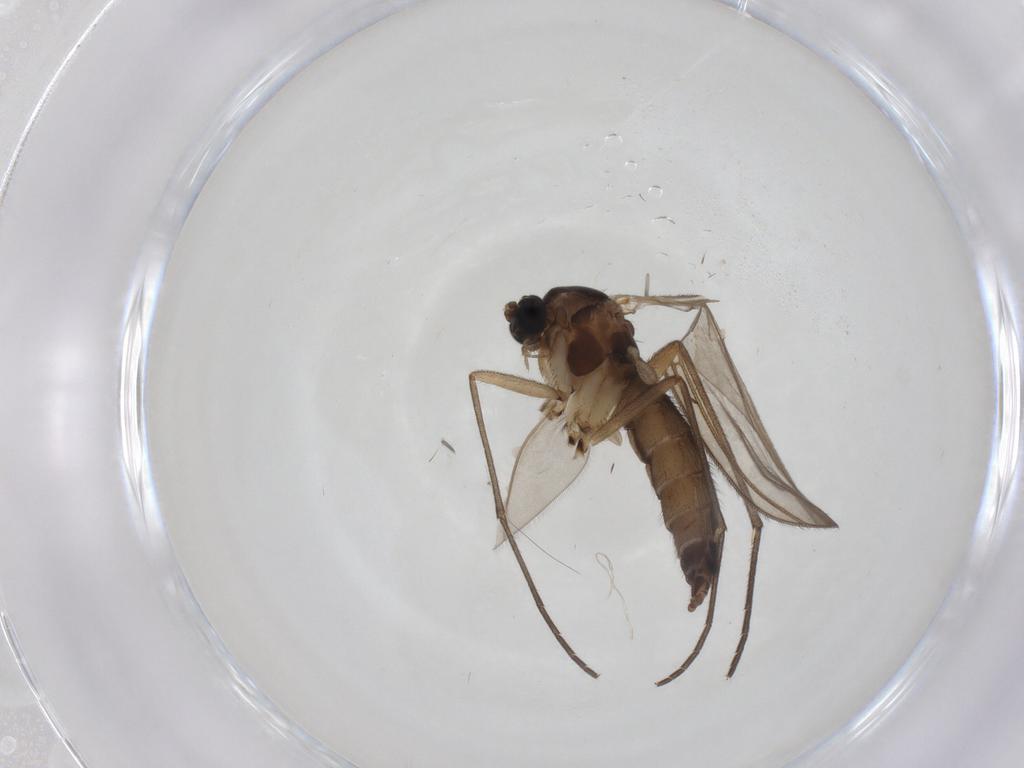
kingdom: Animalia
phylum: Arthropoda
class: Insecta
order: Diptera
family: Sciaridae
